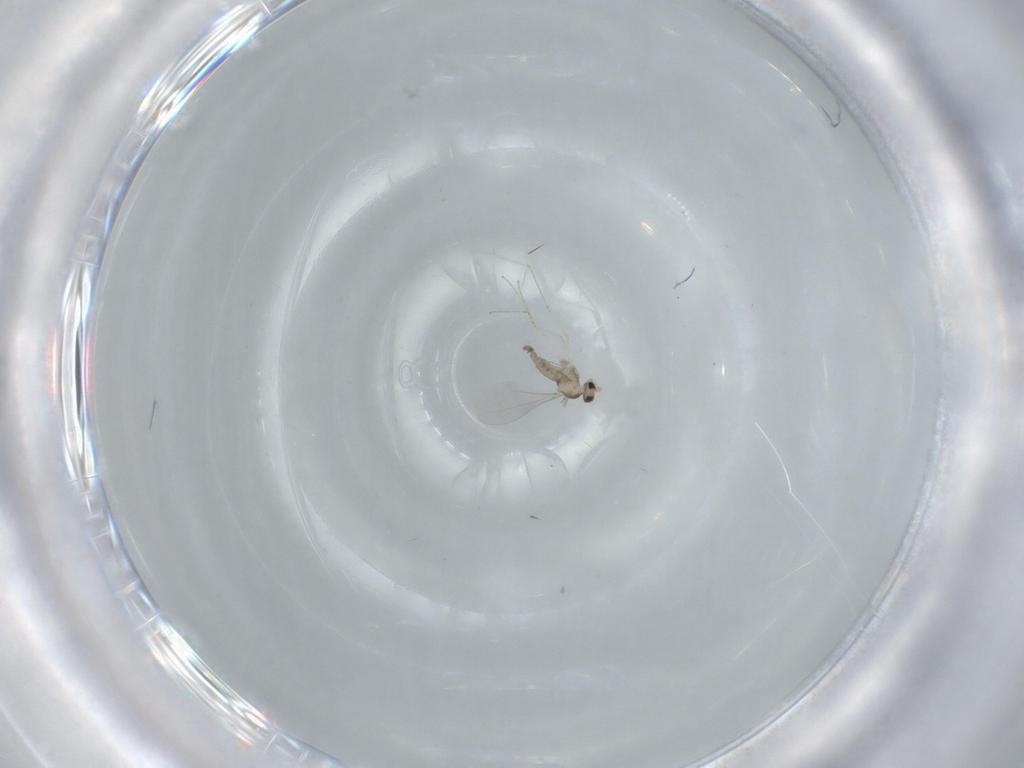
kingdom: Animalia
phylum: Arthropoda
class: Insecta
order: Diptera
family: Cecidomyiidae
